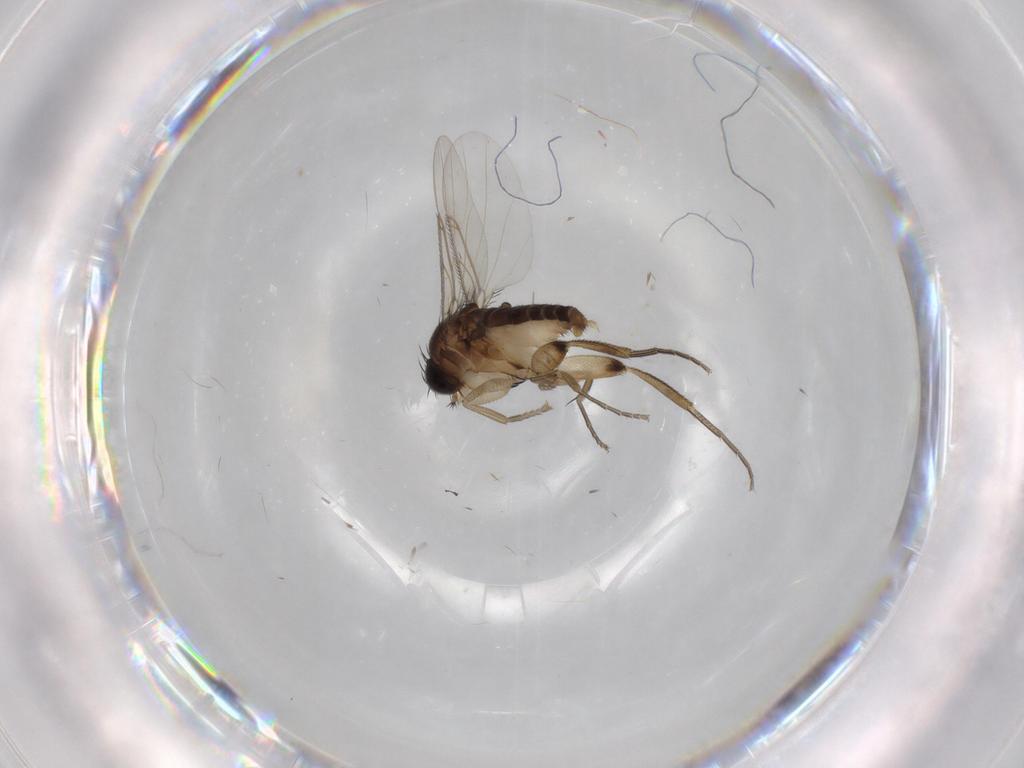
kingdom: Animalia
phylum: Arthropoda
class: Insecta
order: Diptera
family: Phoridae
